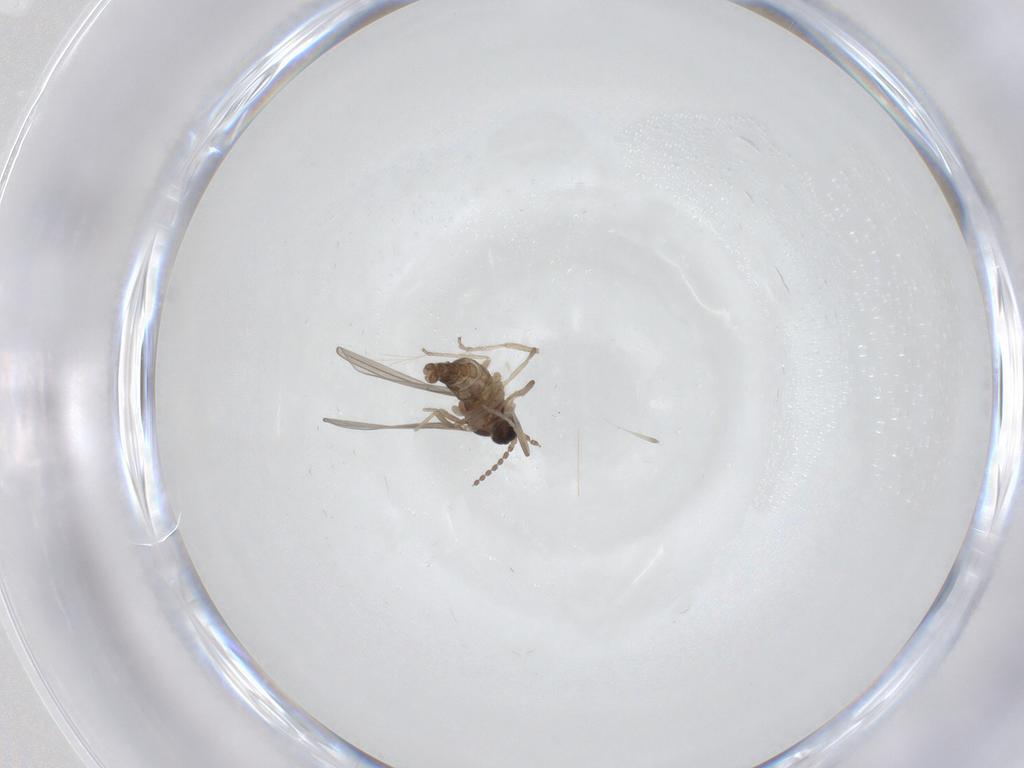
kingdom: Animalia
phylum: Arthropoda
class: Insecta
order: Diptera
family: Cecidomyiidae
